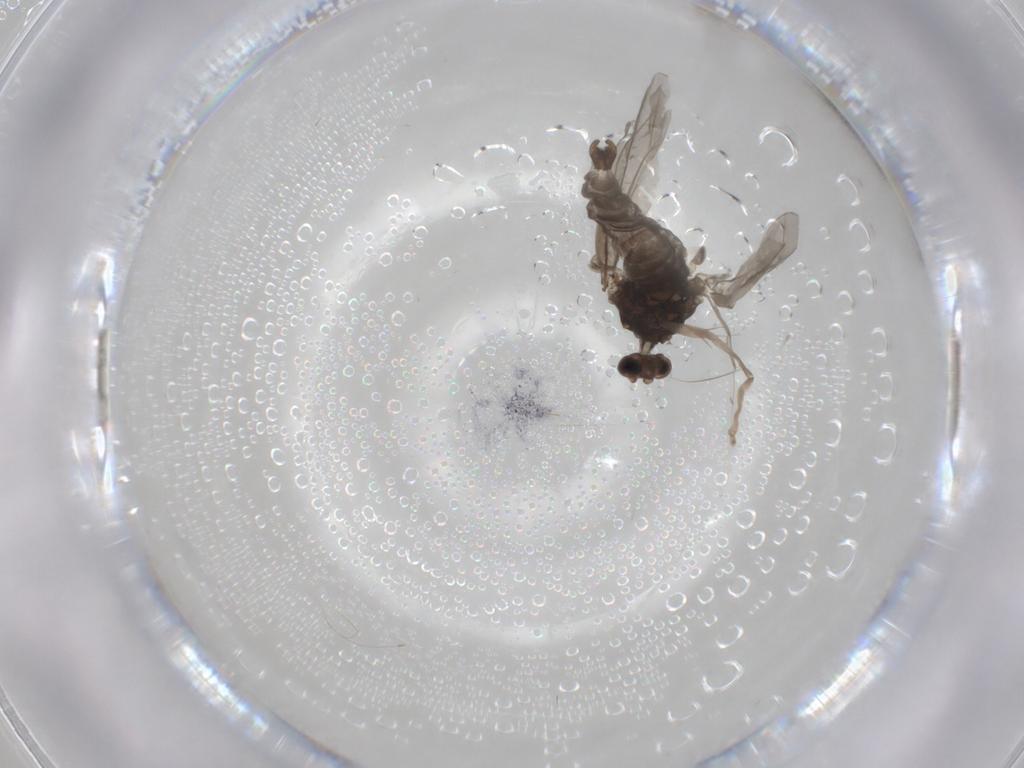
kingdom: Animalia
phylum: Arthropoda
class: Insecta
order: Diptera
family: Cecidomyiidae
